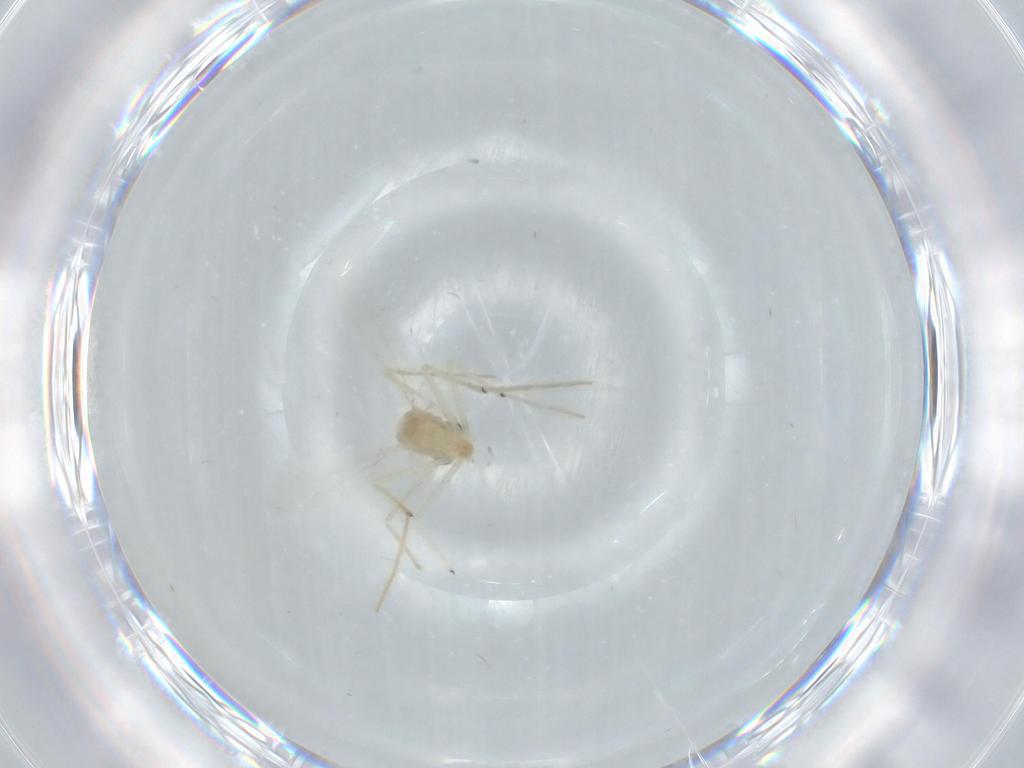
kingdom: Animalia
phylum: Arthropoda
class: Insecta
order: Diptera
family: Chironomidae
